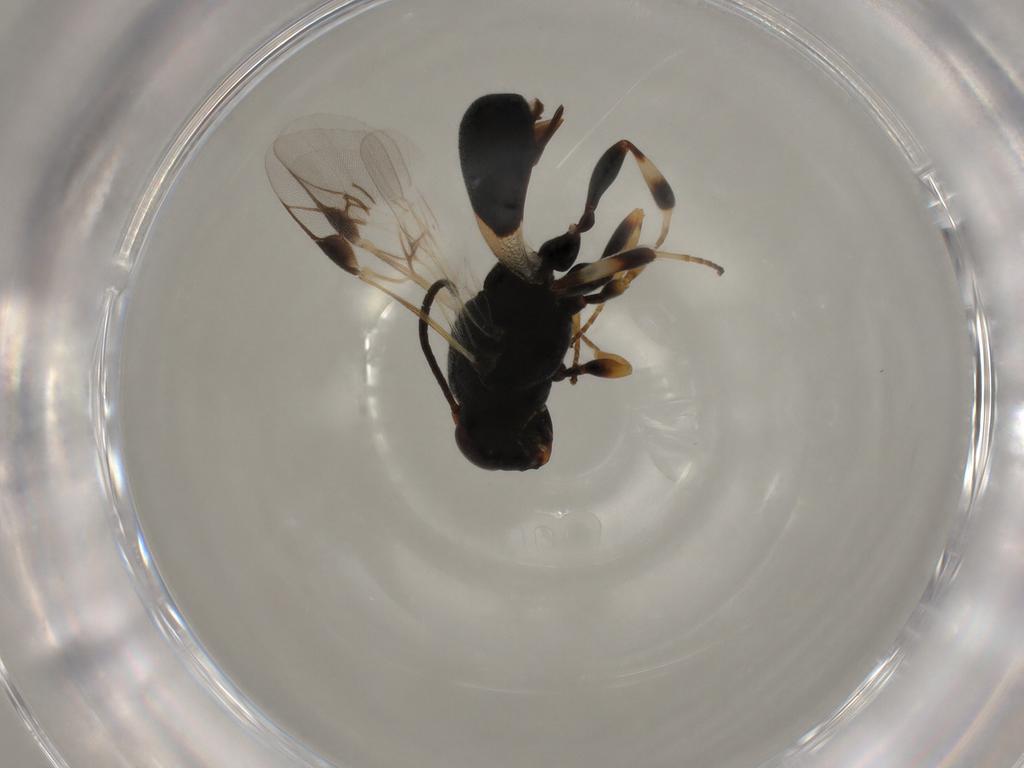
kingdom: Animalia
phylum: Arthropoda
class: Insecta
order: Hymenoptera
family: Braconidae
